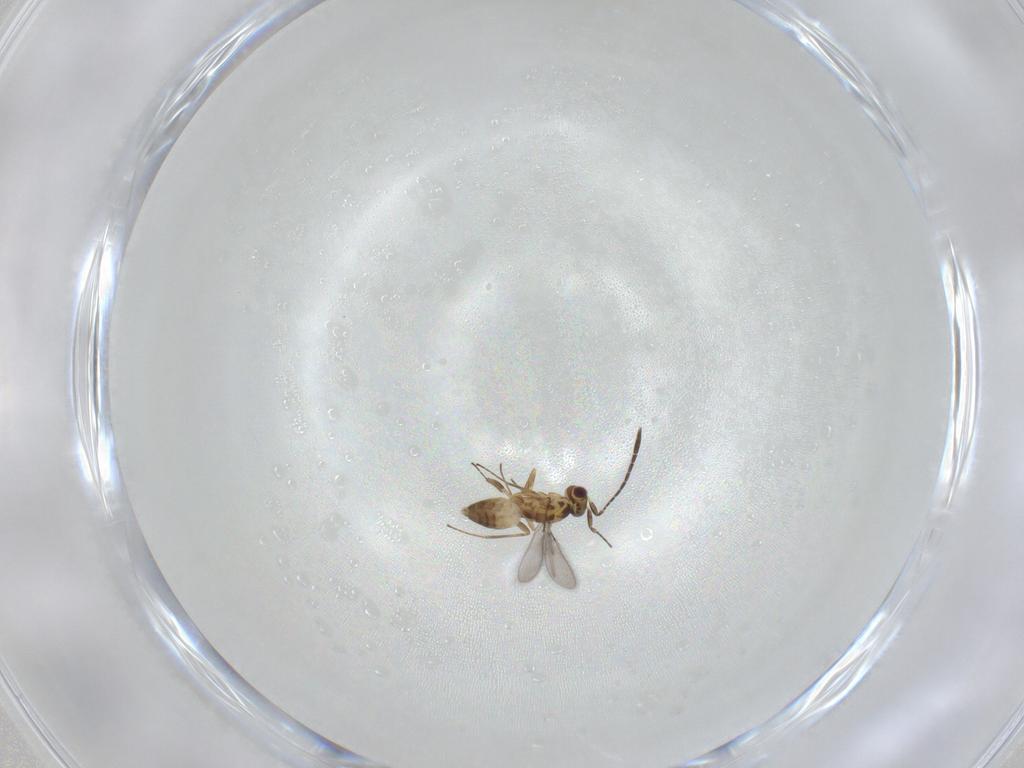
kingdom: Animalia
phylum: Arthropoda
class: Insecta
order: Hymenoptera
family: Mymaridae
